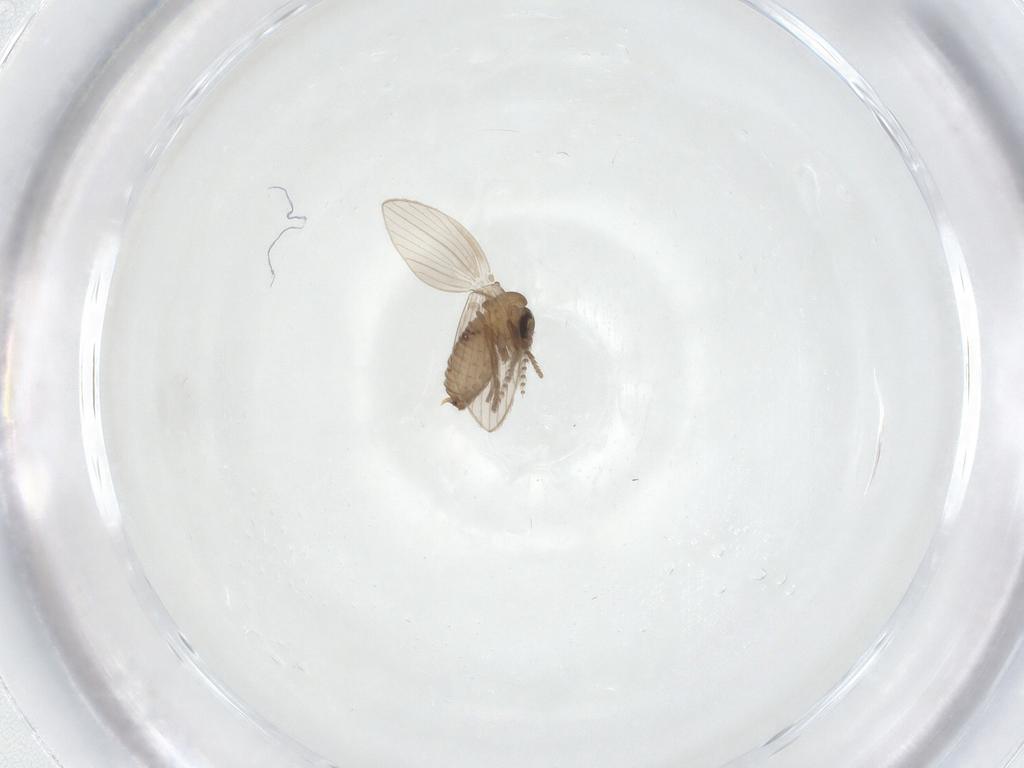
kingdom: Animalia
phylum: Arthropoda
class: Insecta
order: Diptera
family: Psychodidae
